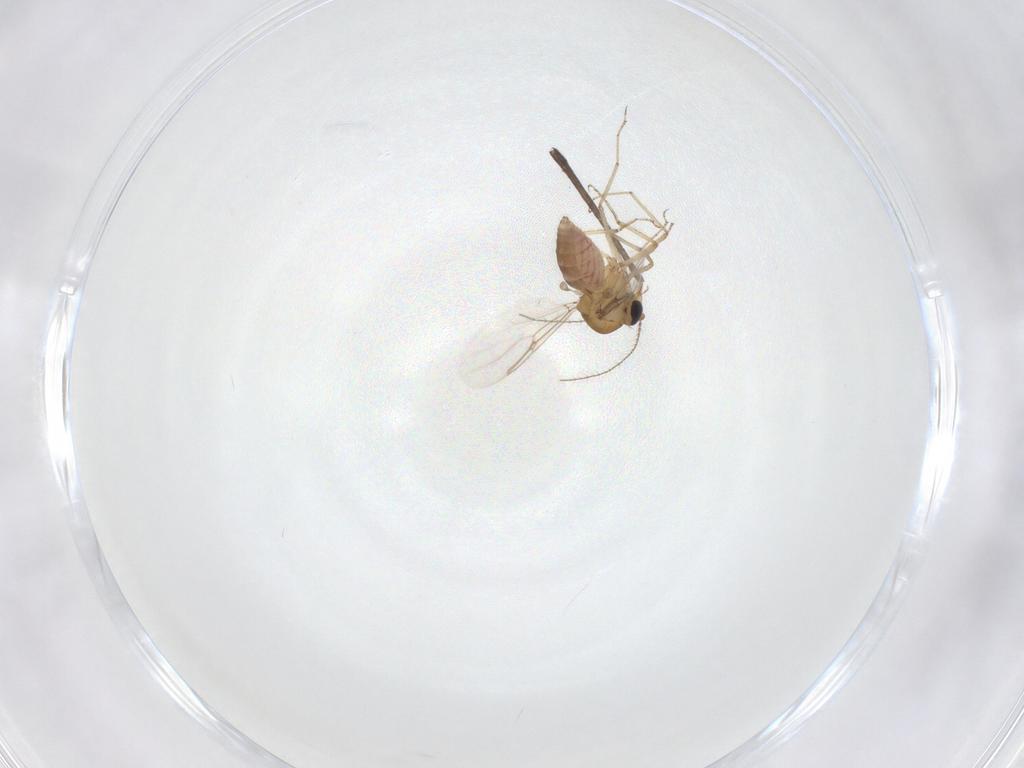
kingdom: Animalia
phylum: Arthropoda
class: Insecta
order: Diptera
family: Ceratopogonidae
